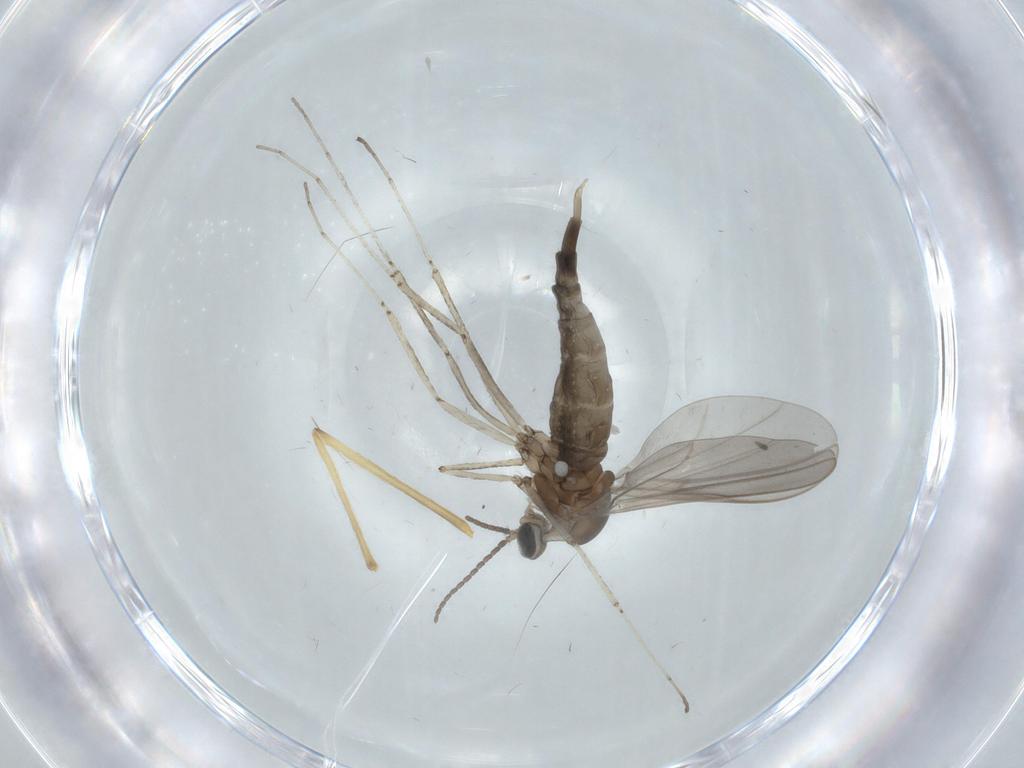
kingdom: Animalia
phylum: Arthropoda
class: Insecta
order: Diptera
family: Cecidomyiidae
